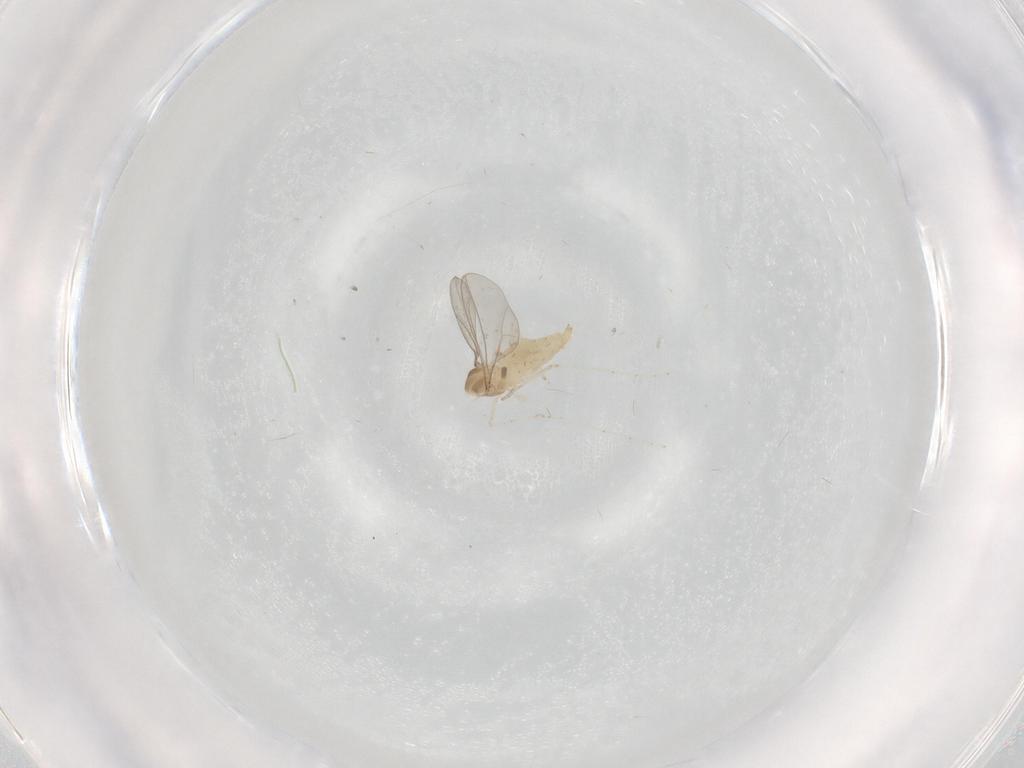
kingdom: Animalia
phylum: Arthropoda
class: Insecta
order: Diptera
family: Cecidomyiidae
